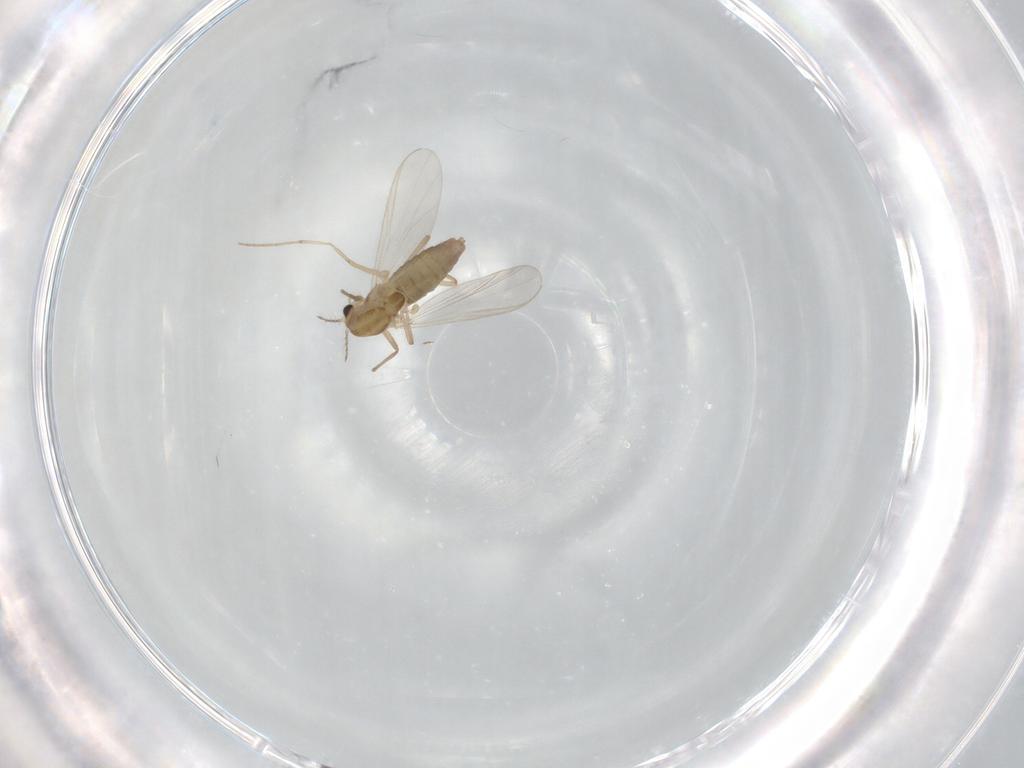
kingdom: Animalia
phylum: Arthropoda
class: Insecta
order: Diptera
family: Chironomidae
